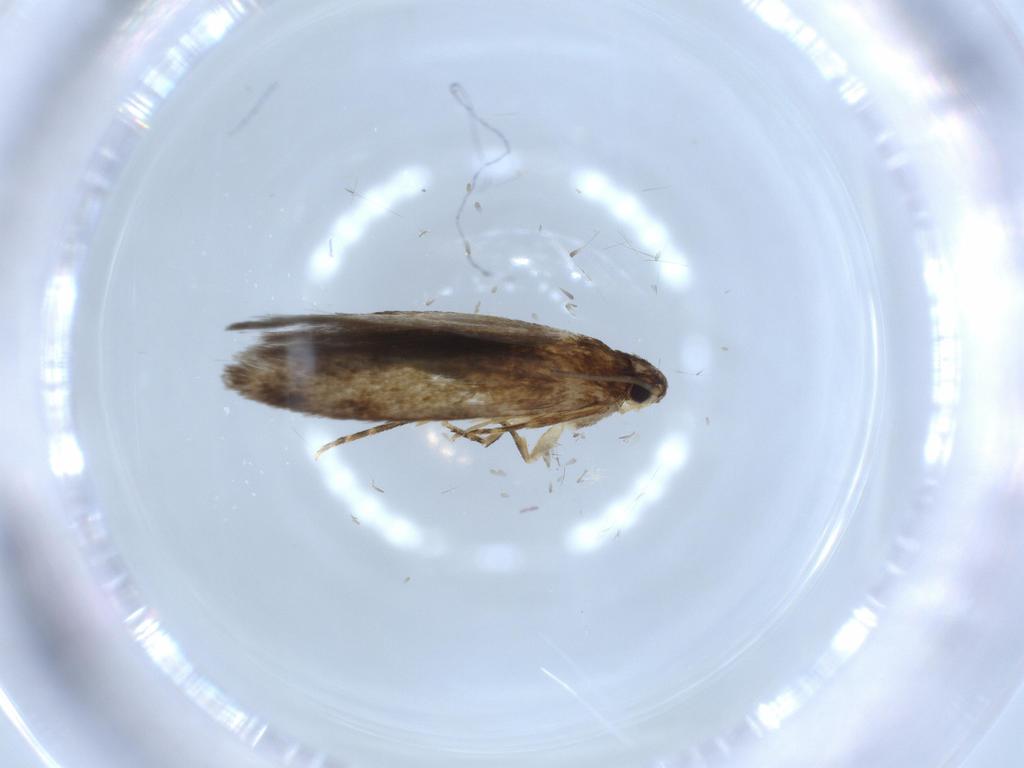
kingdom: Animalia
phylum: Arthropoda
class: Insecta
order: Lepidoptera
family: Tineidae
